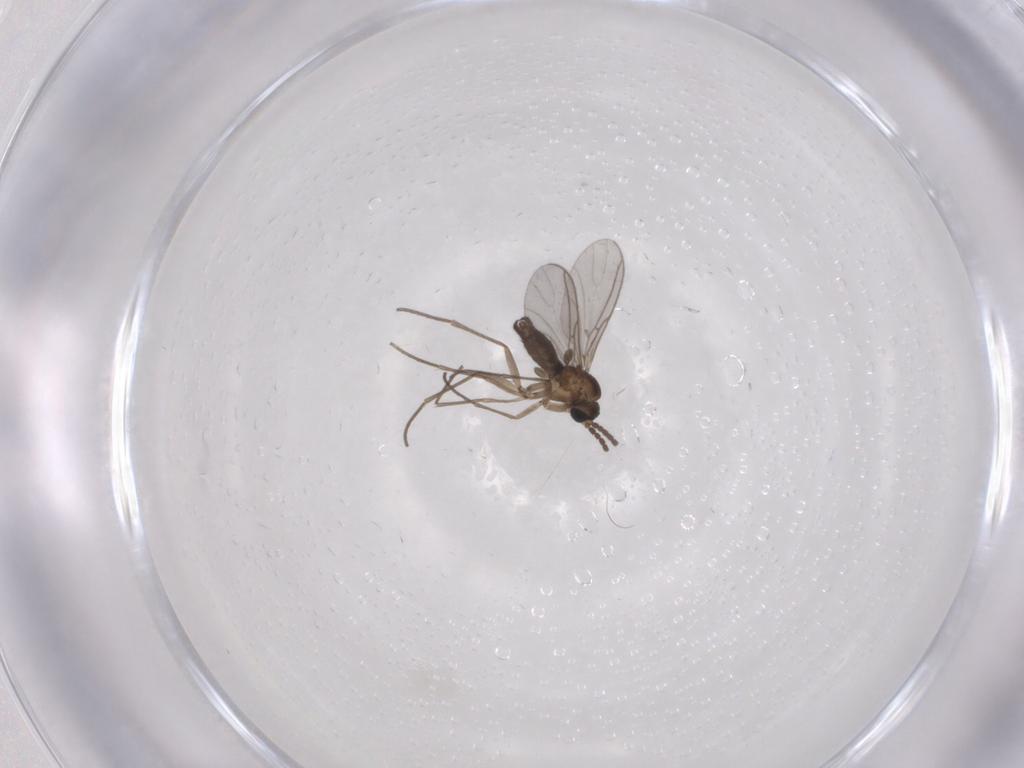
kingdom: Animalia
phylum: Arthropoda
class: Insecta
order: Diptera
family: Sciaridae
